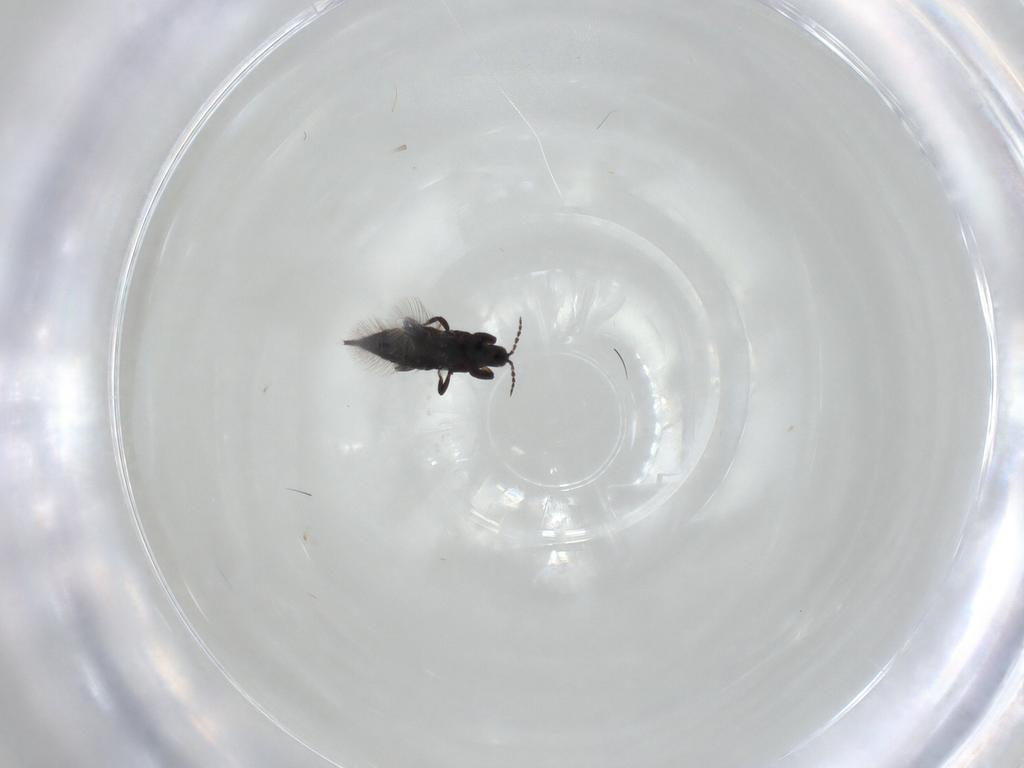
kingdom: Animalia
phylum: Arthropoda
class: Insecta
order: Thysanoptera
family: Phlaeothripidae
